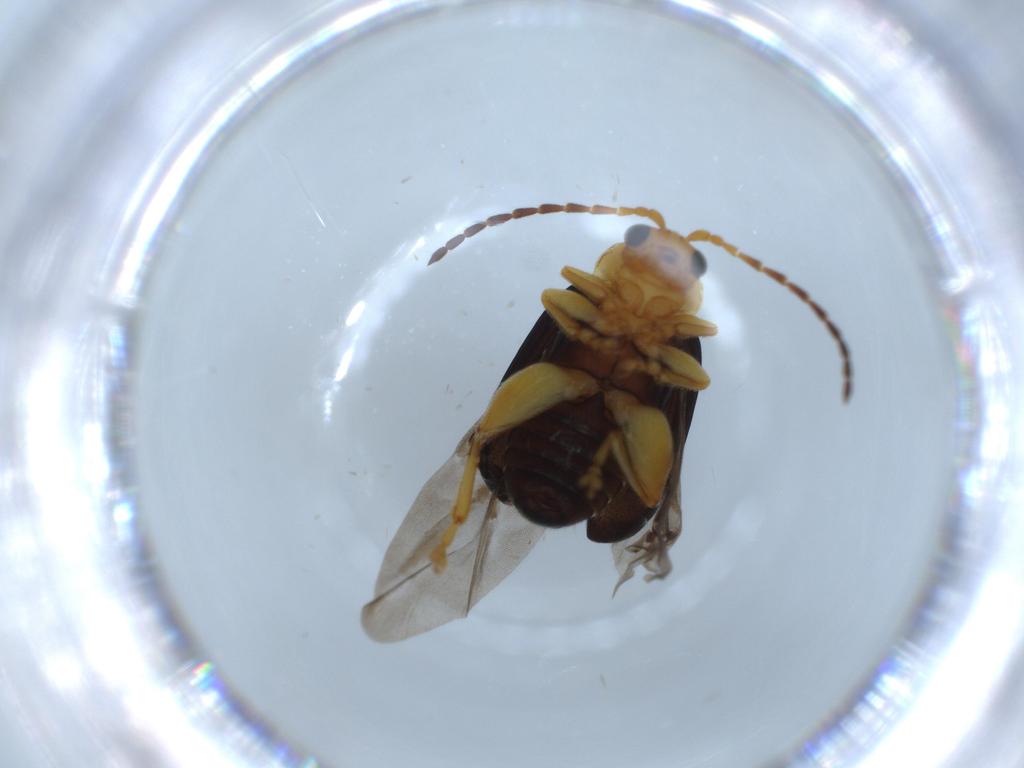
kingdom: Animalia
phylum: Arthropoda
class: Insecta
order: Coleoptera
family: Chrysomelidae
